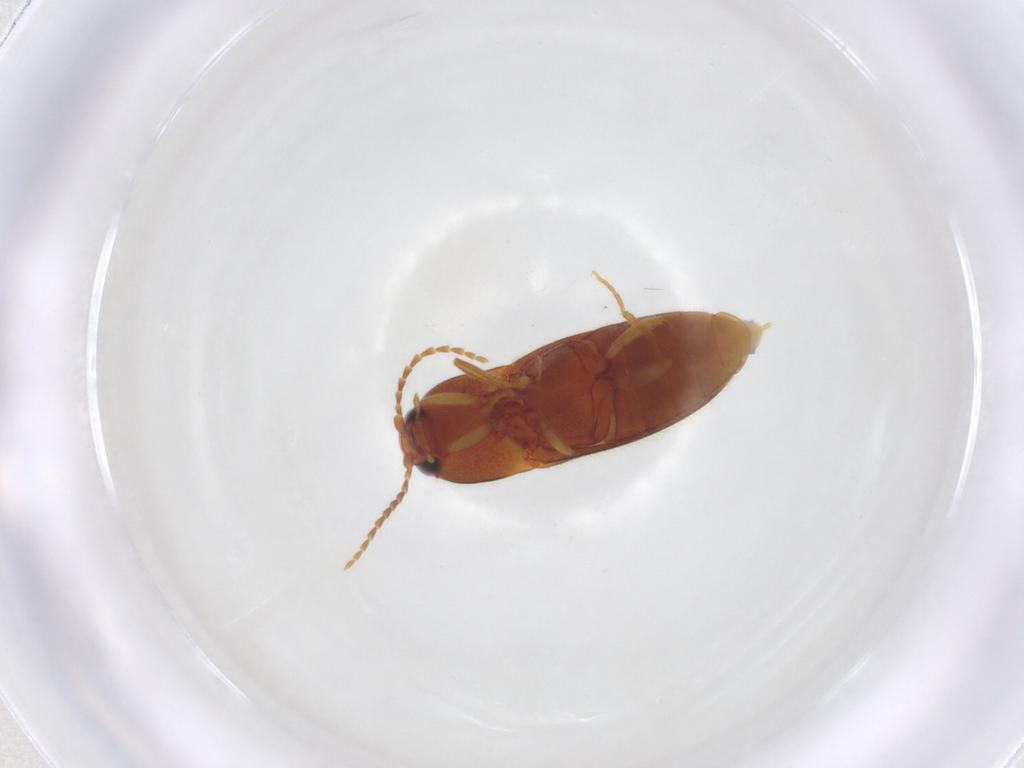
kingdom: Animalia
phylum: Arthropoda
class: Insecta
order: Coleoptera
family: Elateridae
